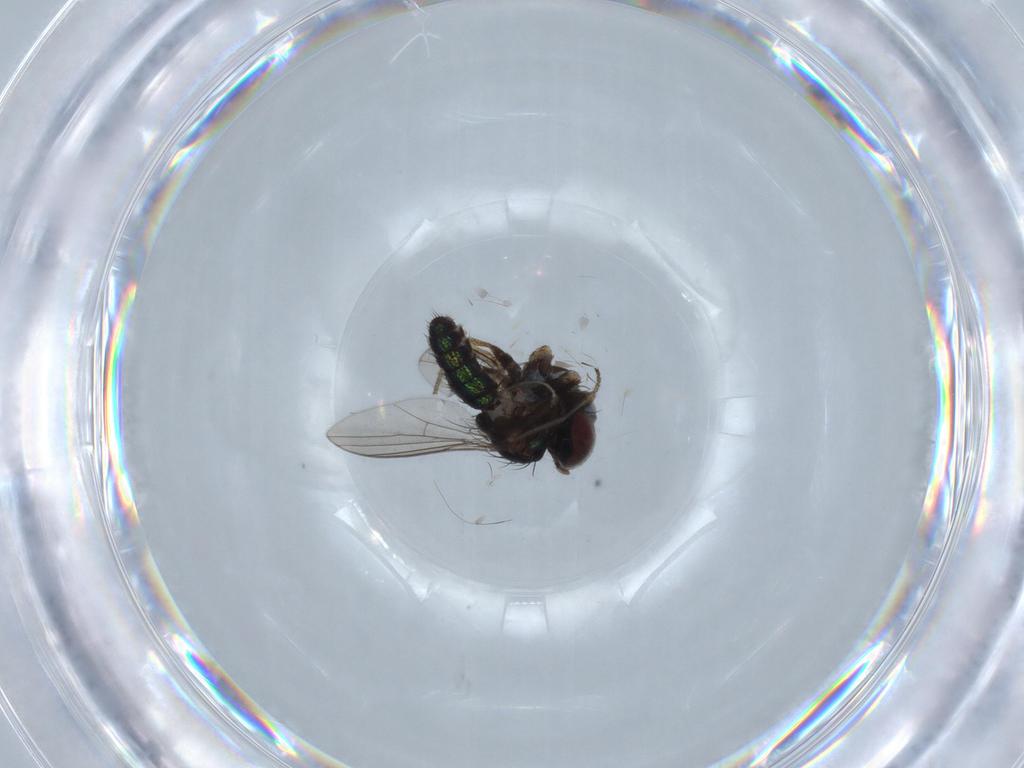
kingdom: Animalia
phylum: Arthropoda
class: Insecta
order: Diptera
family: Chironomidae
